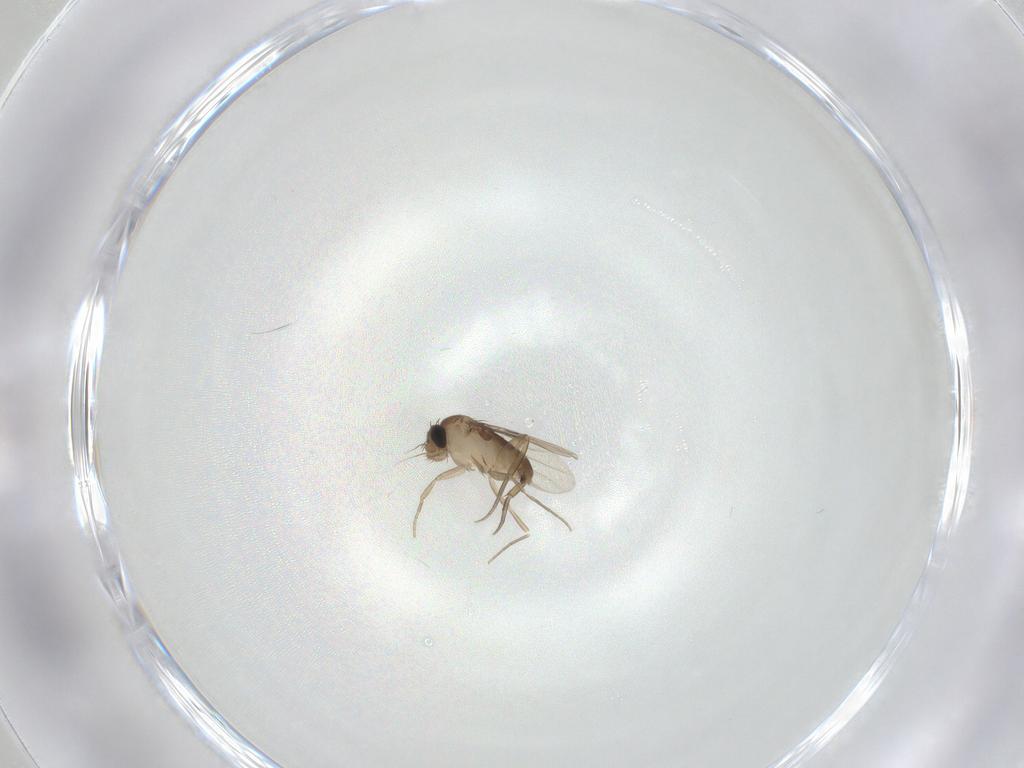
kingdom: Animalia
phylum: Arthropoda
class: Insecta
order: Diptera
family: Phoridae
